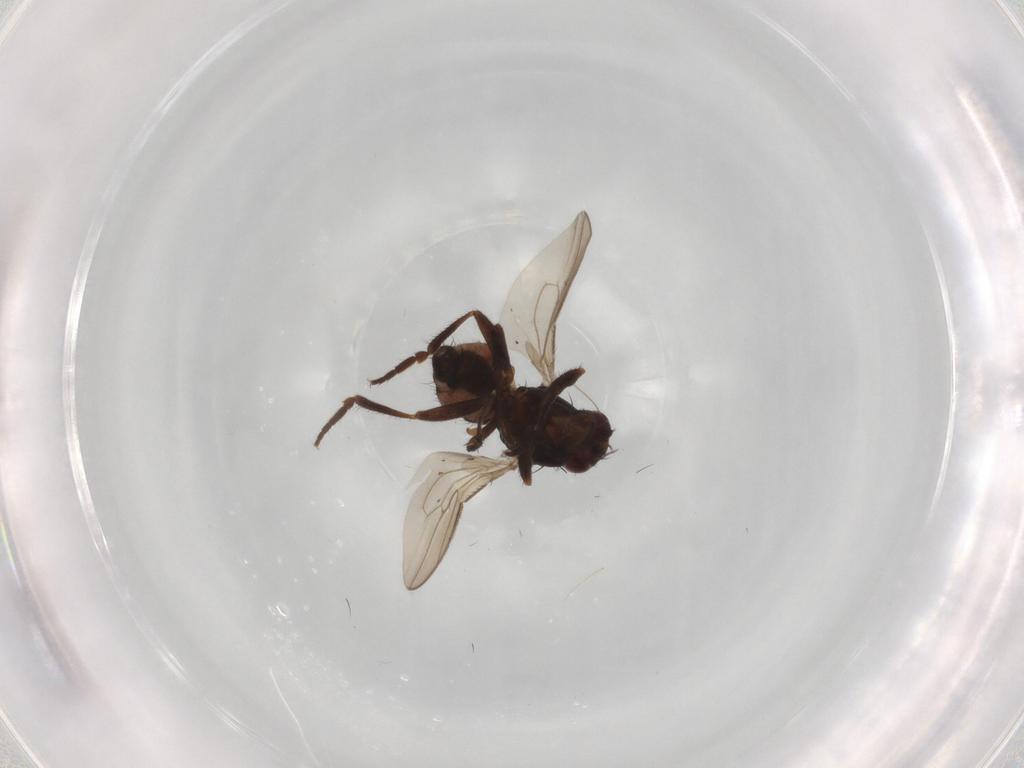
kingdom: Animalia
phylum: Arthropoda
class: Insecta
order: Diptera
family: Sphaeroceridae
